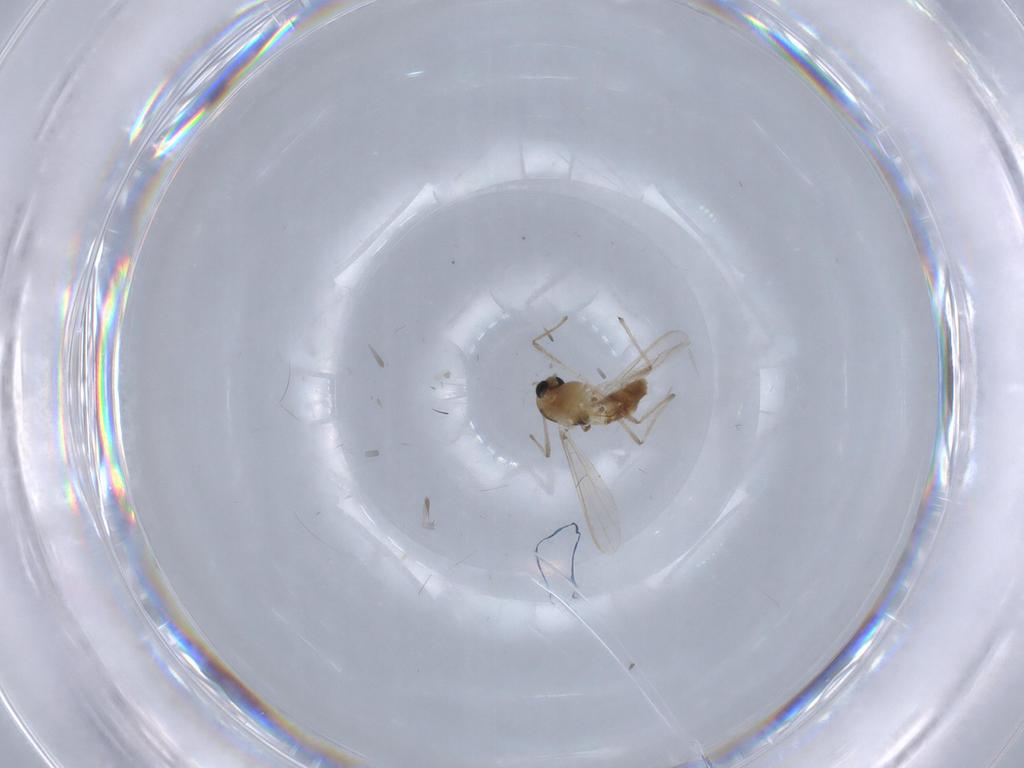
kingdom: Animalia
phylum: Arthropoda
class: Insecta
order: Diptera
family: Chironomidae
